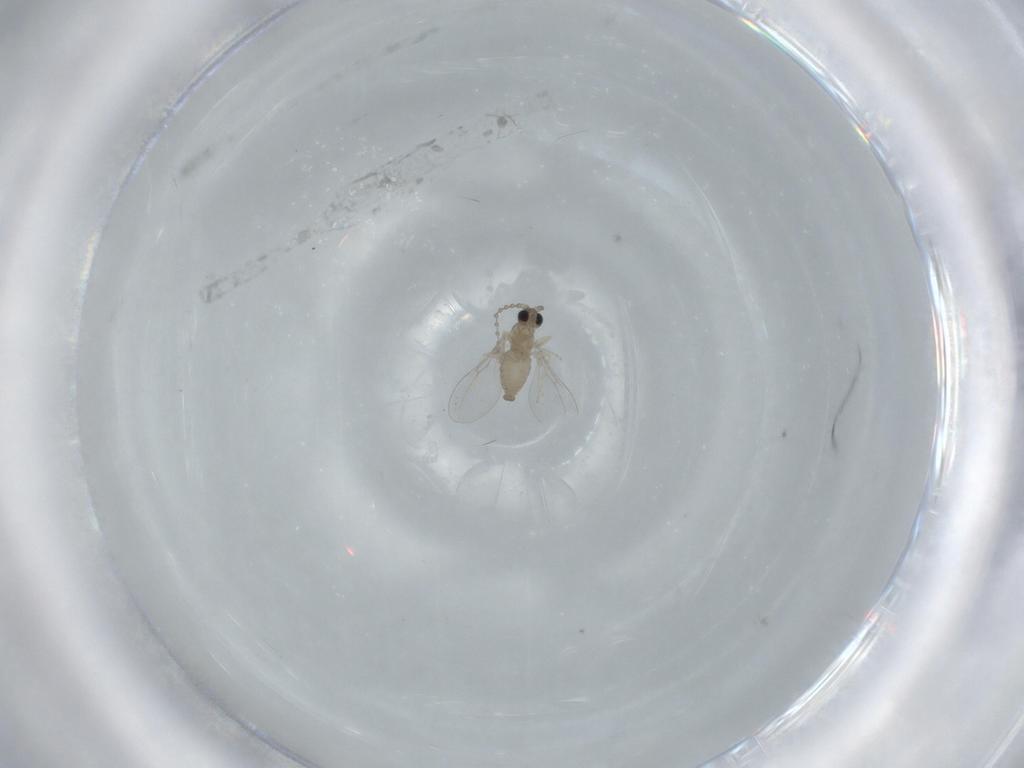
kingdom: Animalia
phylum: Arthropoda
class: Insecta
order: Diptera
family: Cecidomyiidae
